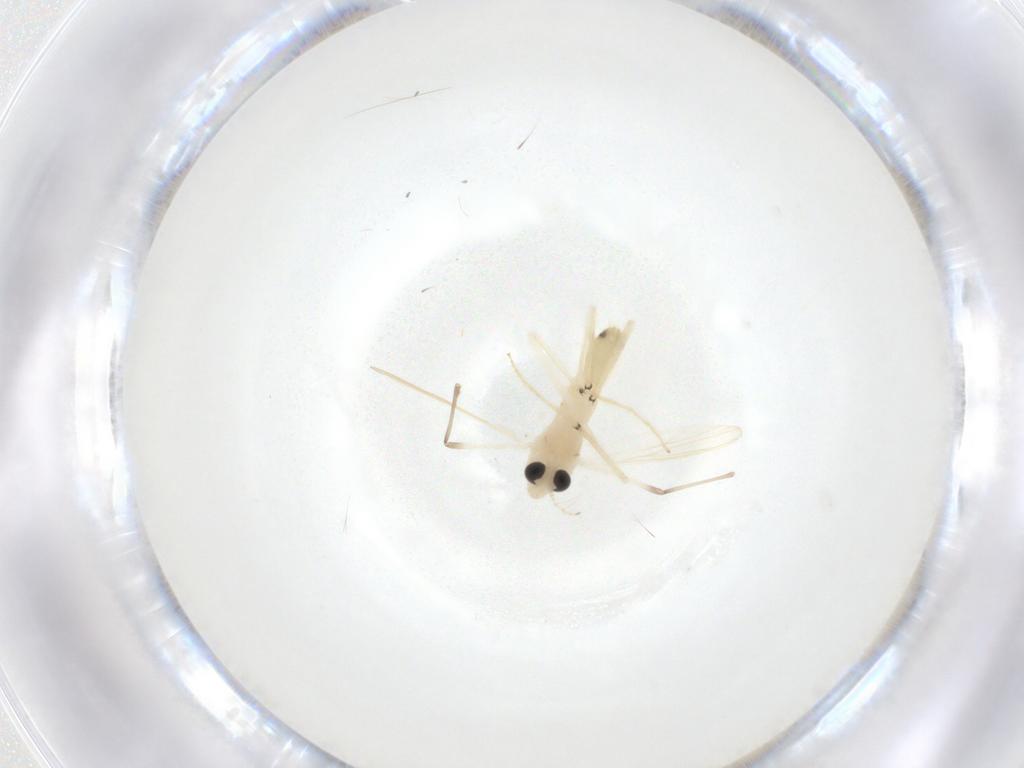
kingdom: Animalia
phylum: Arthropoda
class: Insecta
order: Diptera
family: Chironomidae
